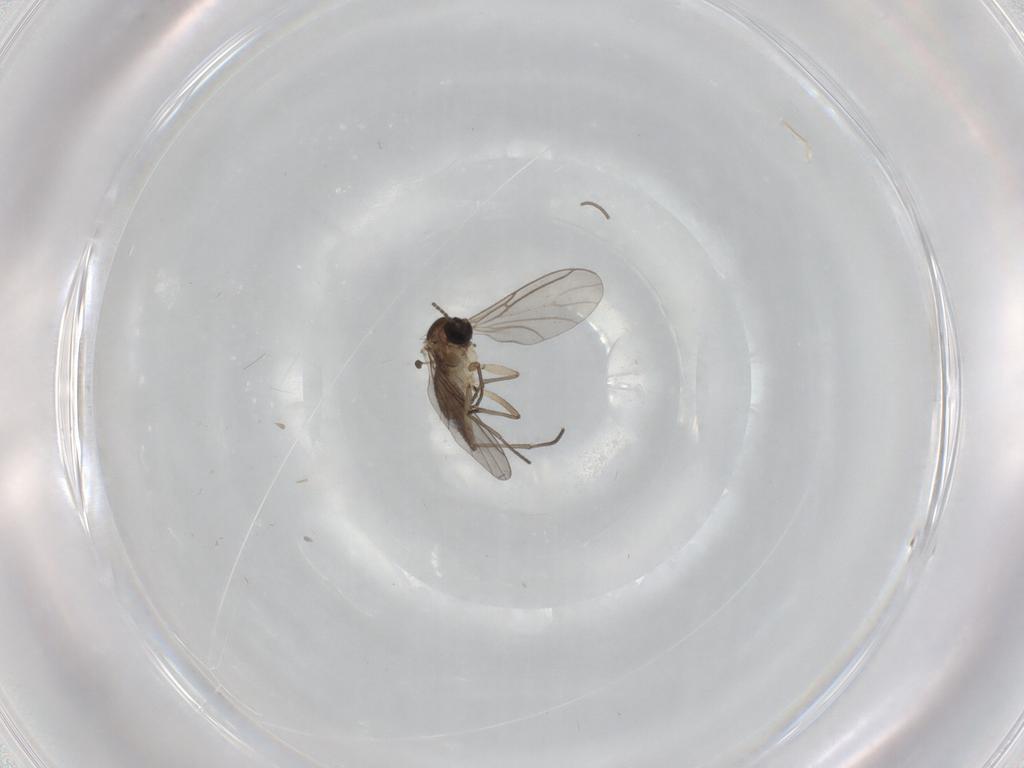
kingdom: Animalia
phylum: Arthropoda
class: Insecta
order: Diptera
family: Sciaridae
